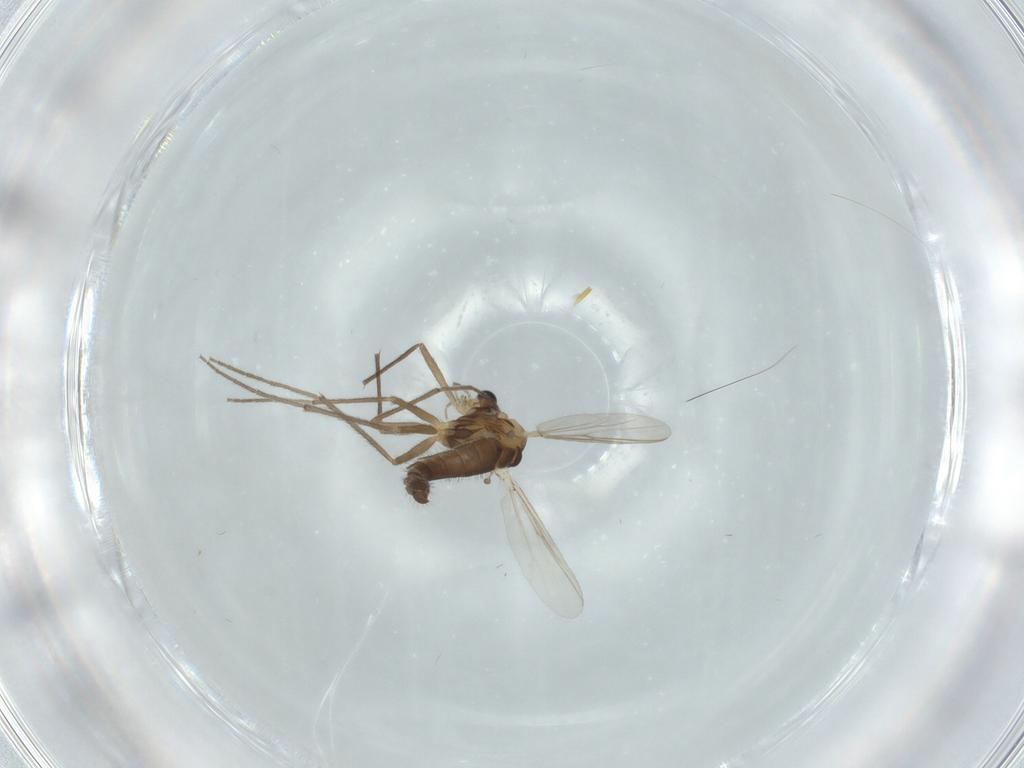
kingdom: Animalia
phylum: Arthropoda
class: Insecta
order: Diptera
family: Chironomidae
